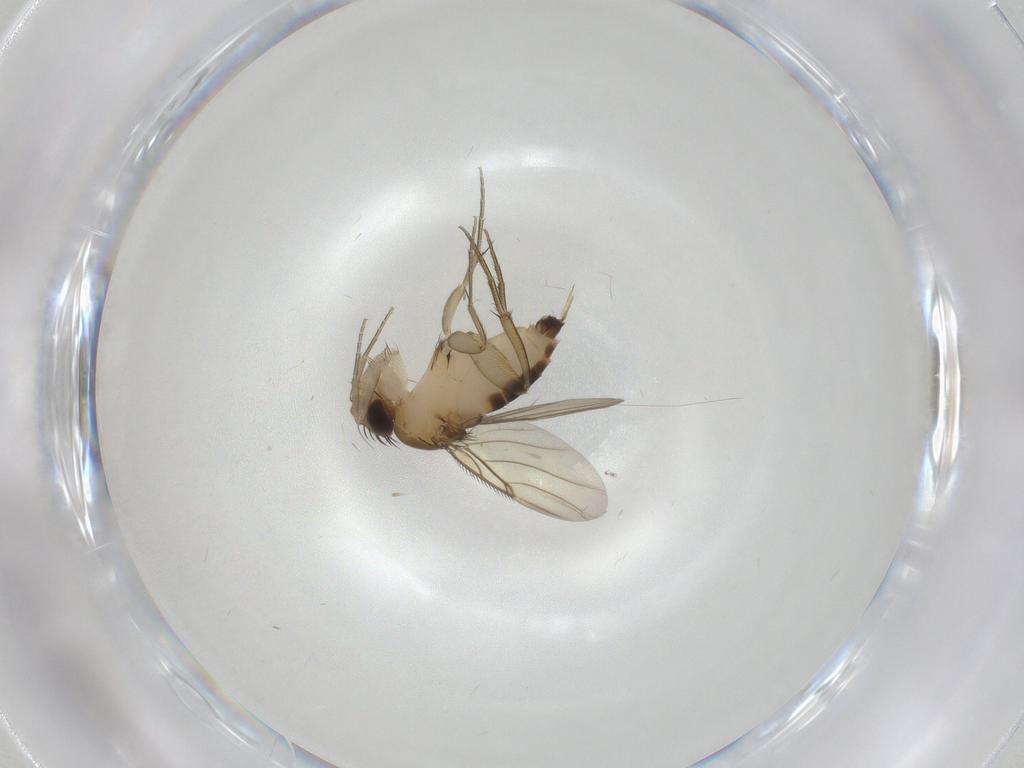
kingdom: Animalia
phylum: Arthropoda
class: Insecta
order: Diptera
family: Phoridae
